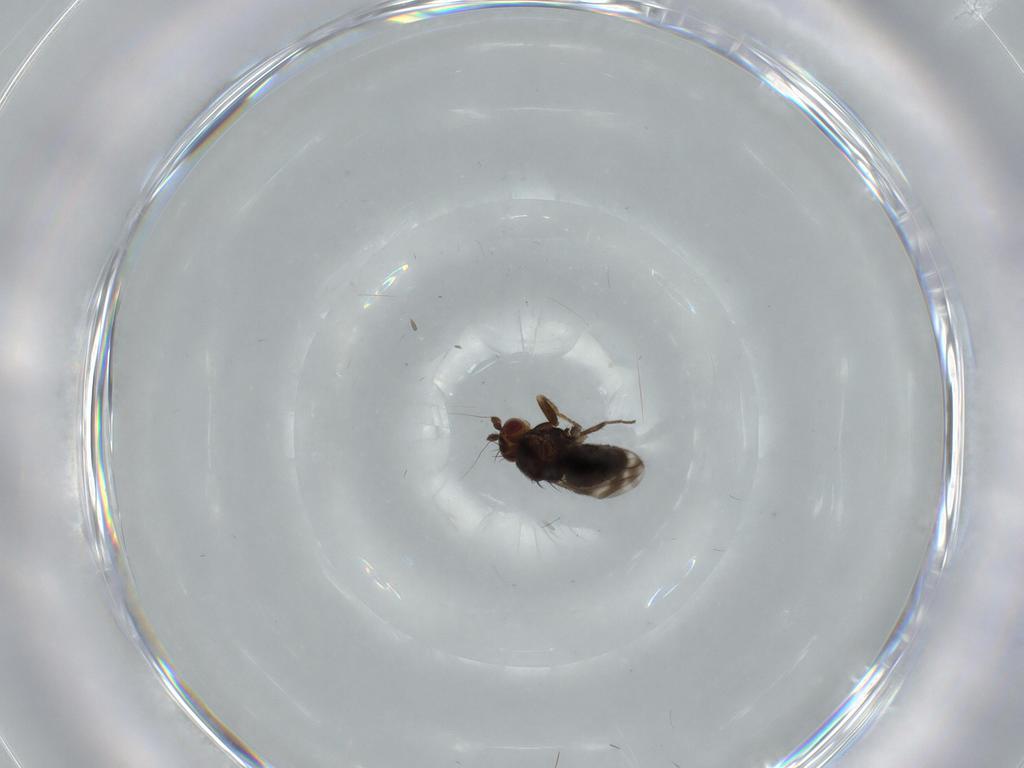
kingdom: Animalia
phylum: Arthropoda
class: Insecta
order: Diptera
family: Sphaeroceridae
